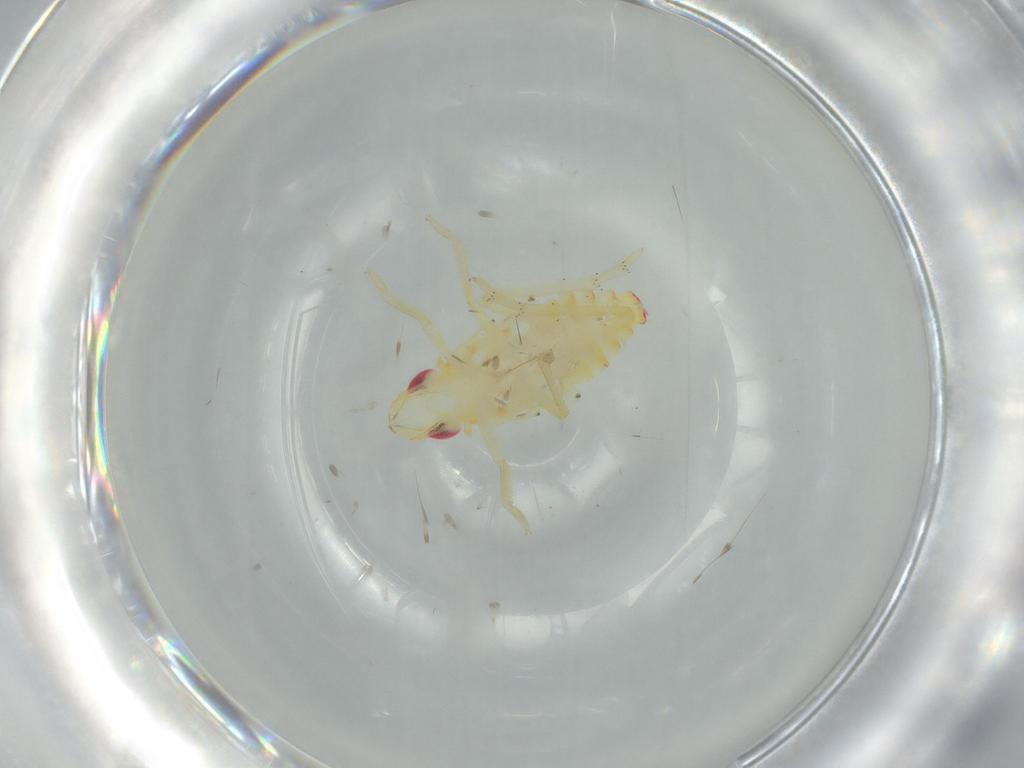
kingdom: Animalia
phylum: Arthropoda
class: Insecta
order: Hemiptera
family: Tropiduchidae
